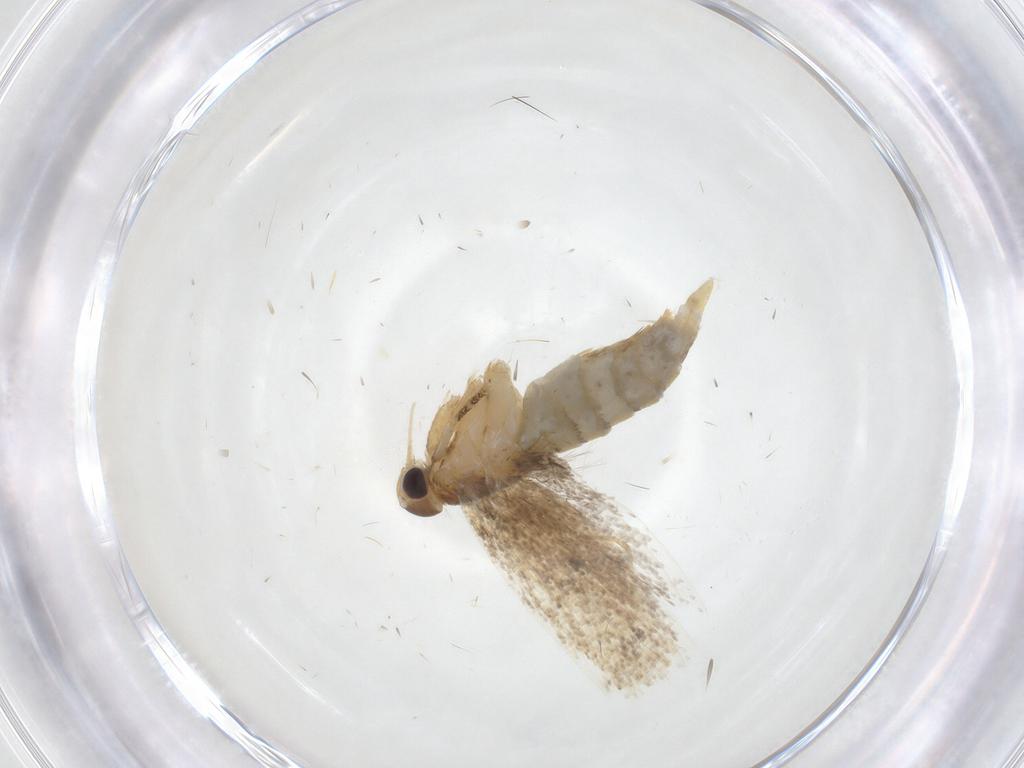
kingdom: Animalia
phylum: Arthropoda
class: Insecta
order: Lepidoptera
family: Oecophoridae
